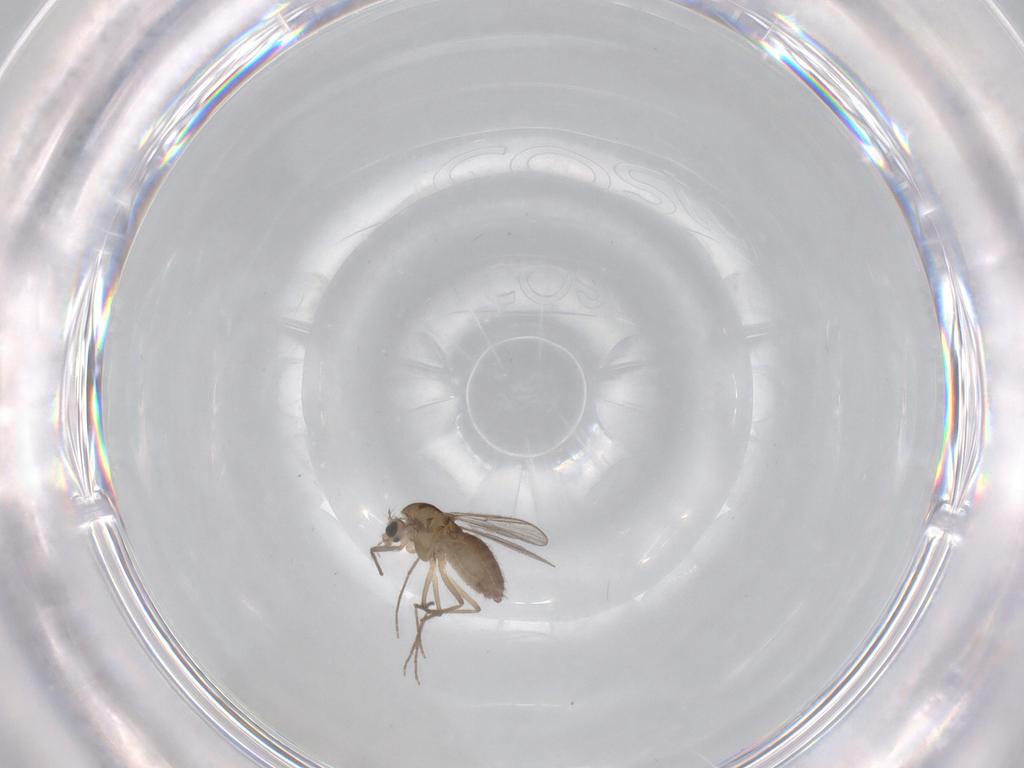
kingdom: Animalia
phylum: Arthropoda
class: Insecta
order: Diptera
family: Chironomidae
